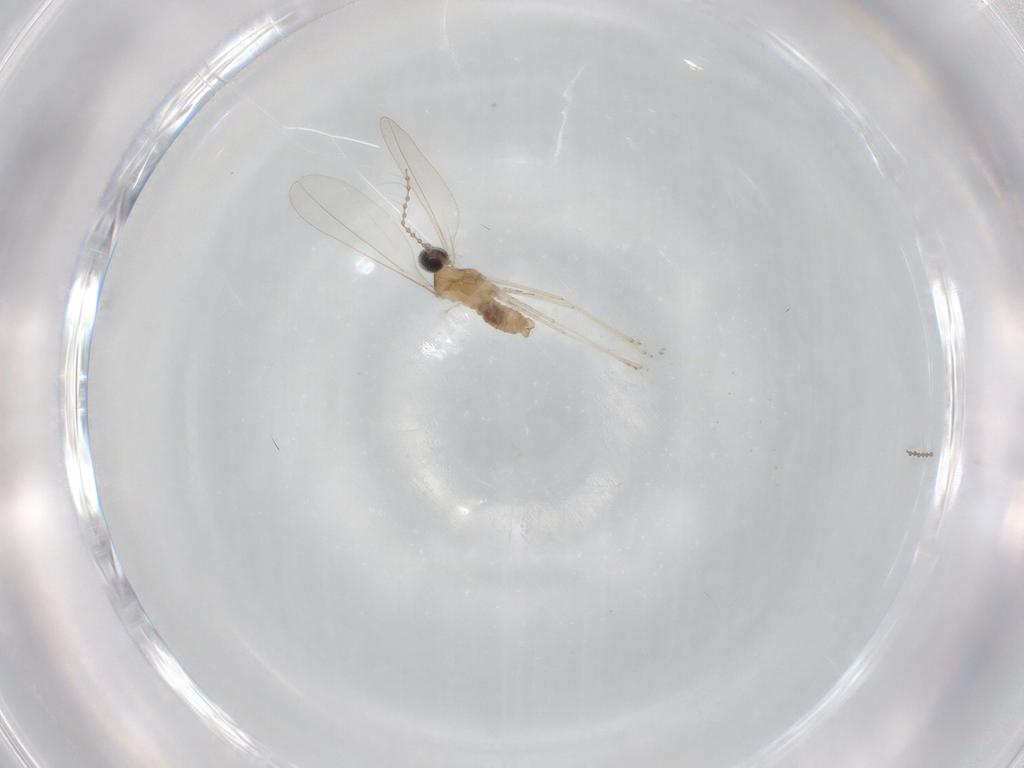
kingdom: Animalia
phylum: Arthropoda
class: Insecta
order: Diptera
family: Cecidomyiidae
